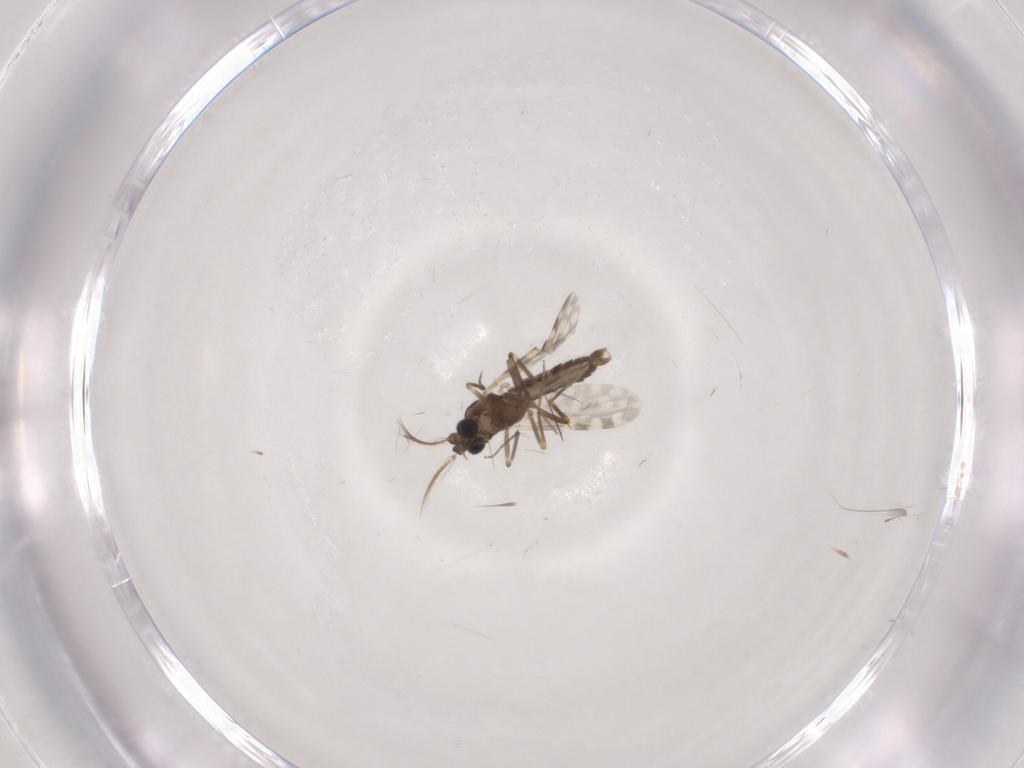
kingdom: Animalia
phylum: Arthropoda
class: Insecta
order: Diptera
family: Ceratopogonidae
